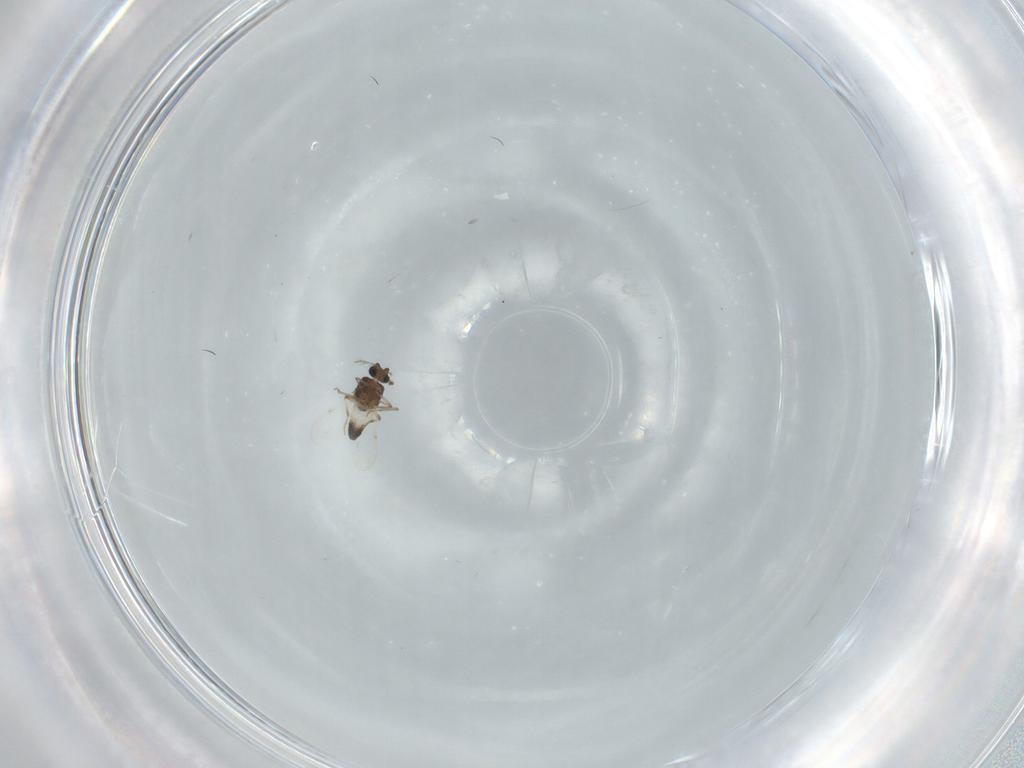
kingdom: Animalia
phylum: Arthropoda
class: Insecta
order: Diptera
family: Ceratopogonidae
